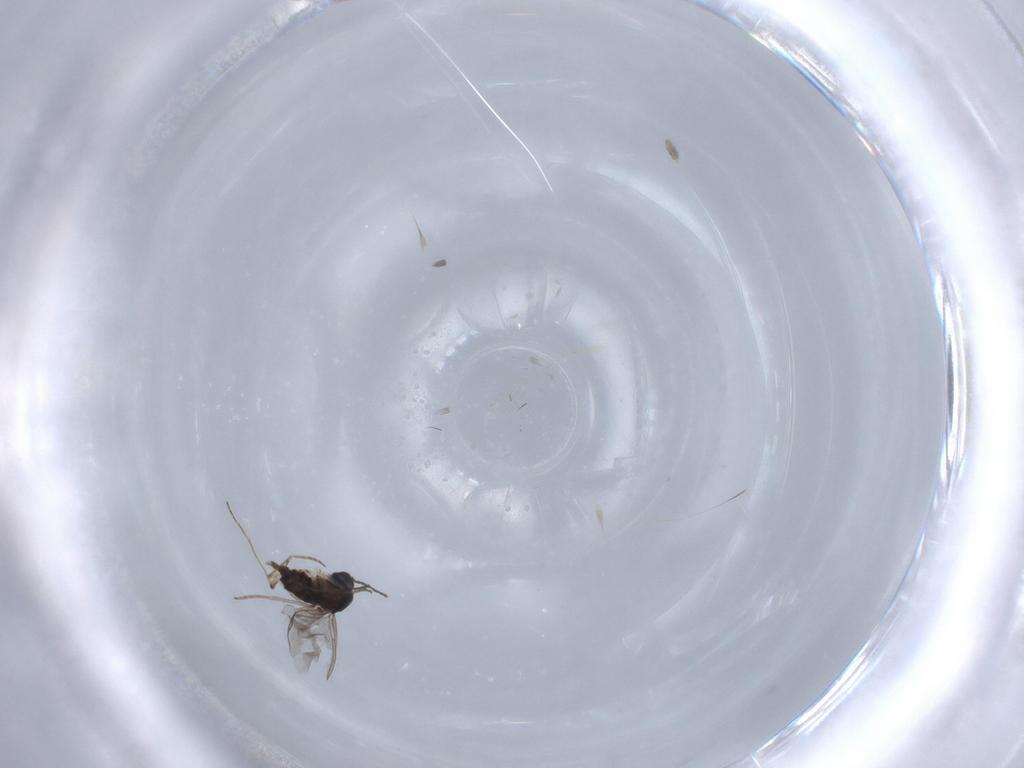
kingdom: Animalia
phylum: Arthropoda
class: Insecta
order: Diptera
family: Sciaridae
